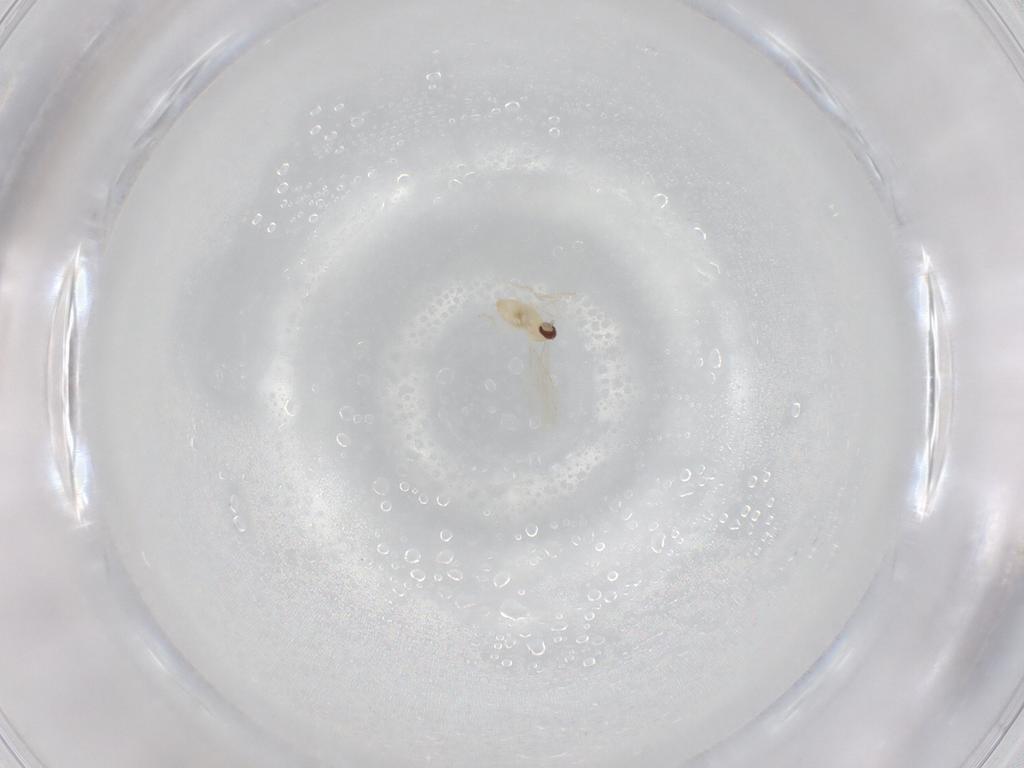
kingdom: Animalia
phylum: Arthropoda
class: Insecta
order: Diptera
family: Cecidomyiidae
